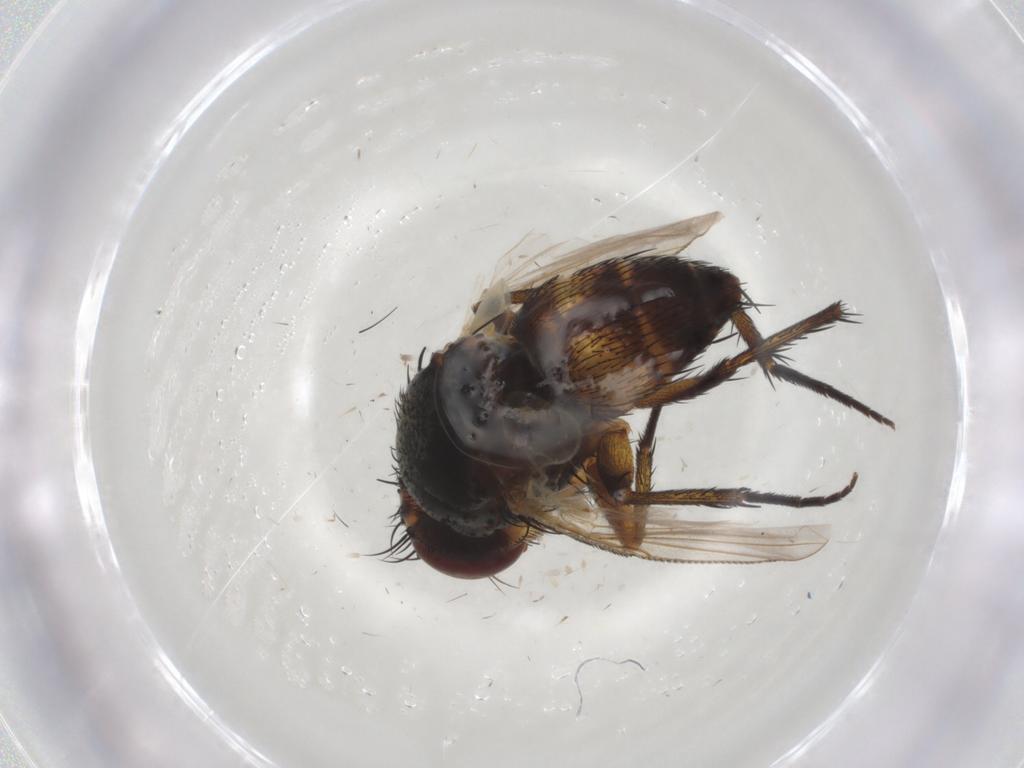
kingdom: Animalia
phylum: Arthropoda
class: Insecta
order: Diptera
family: Tachinidae
